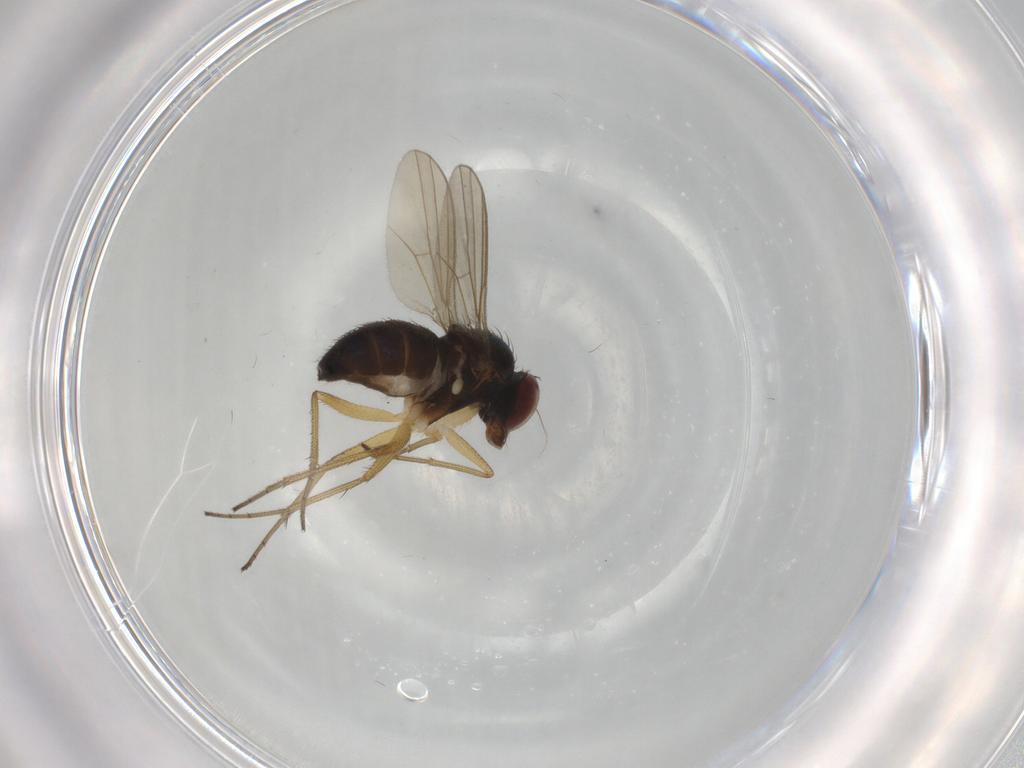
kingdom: Animalia
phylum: Arthropoda
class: Insecta
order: Diptera
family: Dolichopodidae
